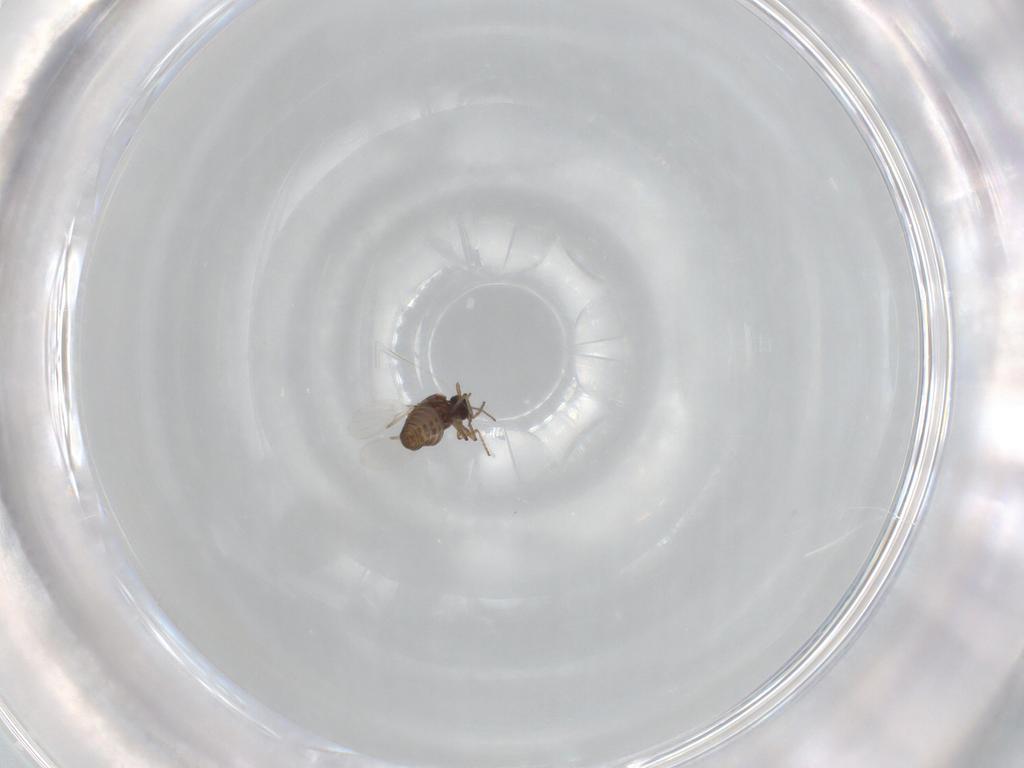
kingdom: Animalia
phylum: Arthropoda
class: Insecta
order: Diptera
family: Ceratopogonidae
